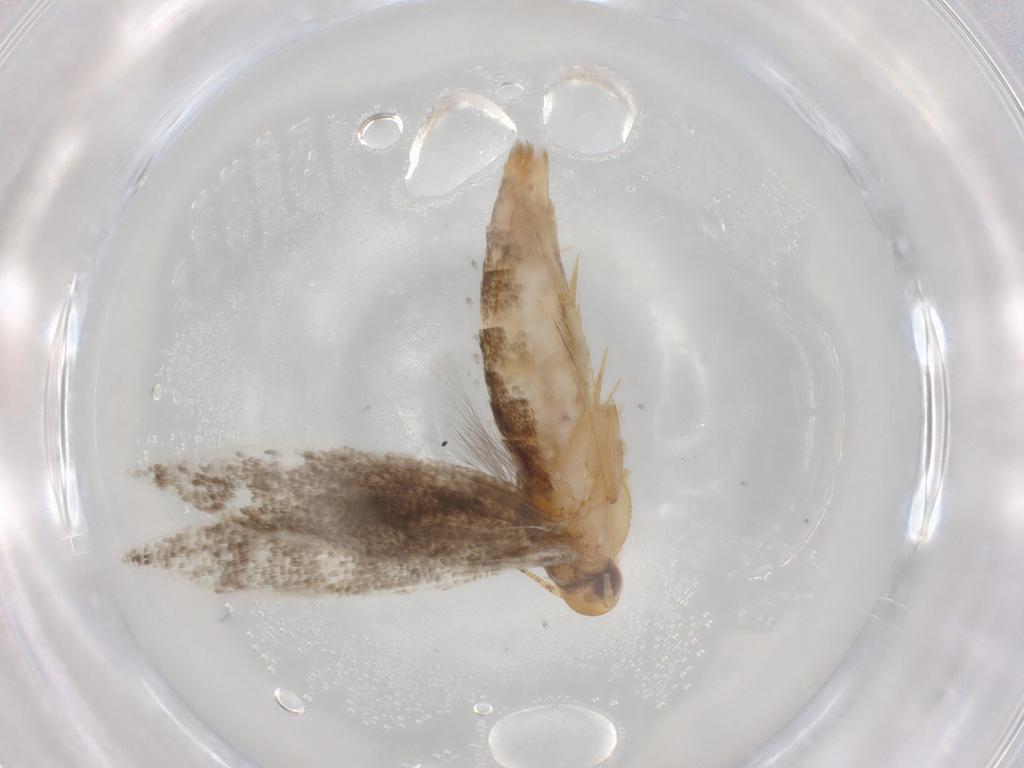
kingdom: Animalia
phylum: Arthropoda
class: Insecta
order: Lepidoptera
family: Elachistidae
